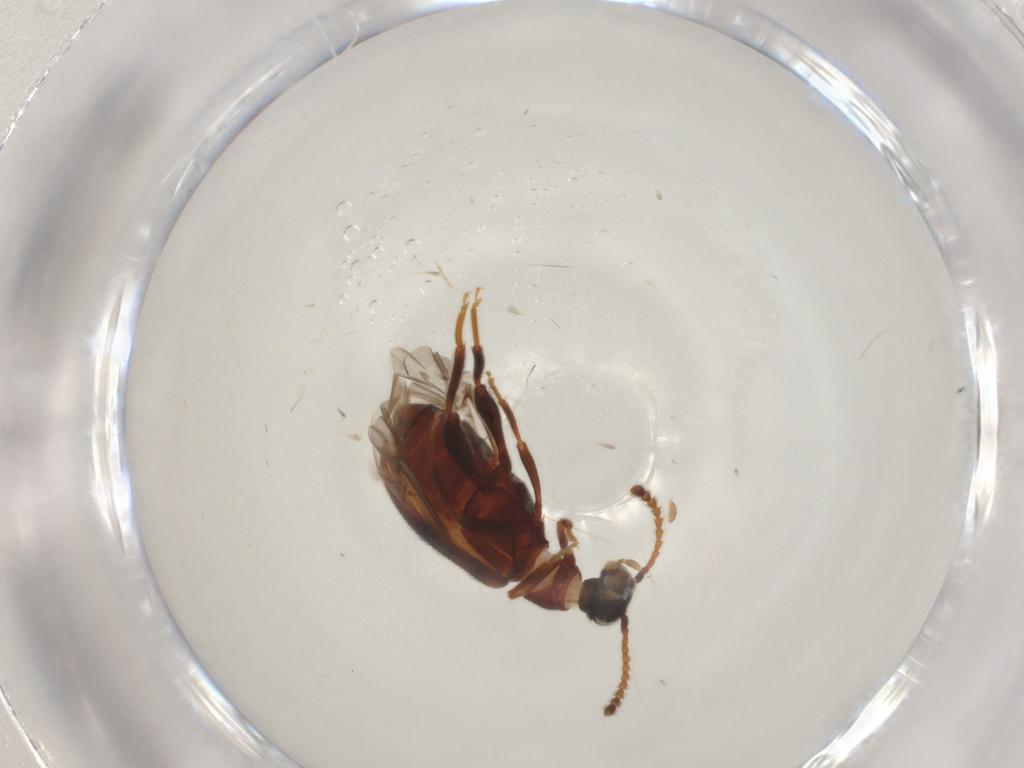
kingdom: Animalia
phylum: Arthropoda
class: Insecta
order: Coleoptera
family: Aderidae
